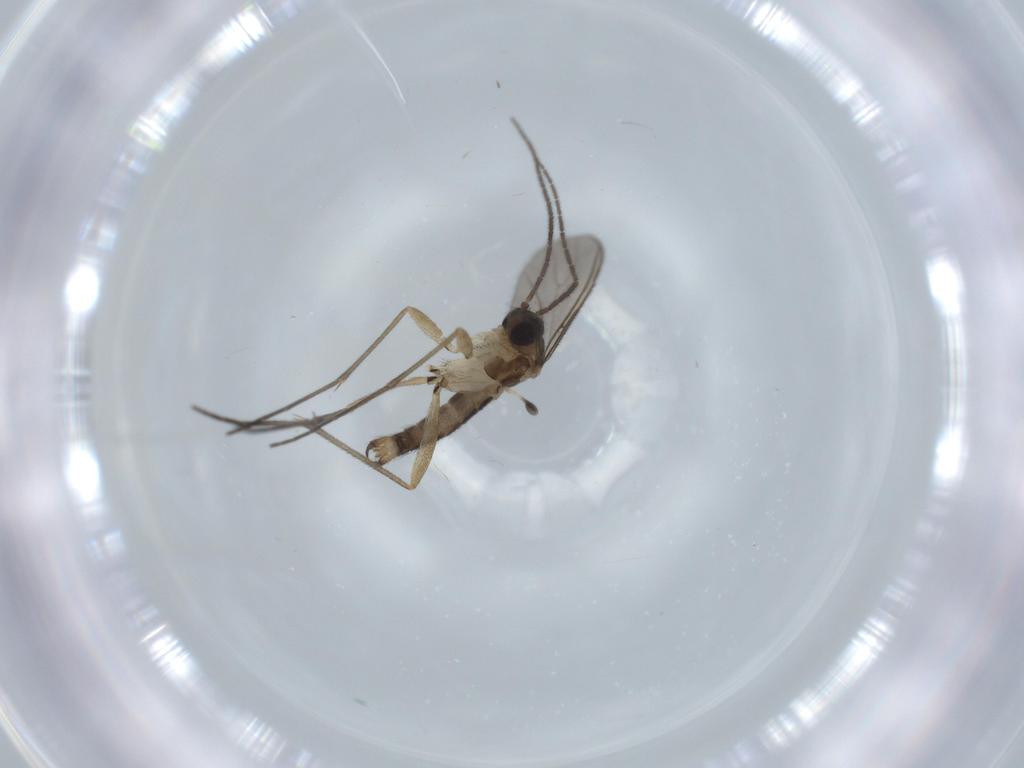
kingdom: Animalia
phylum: Arthropoda
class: Insecta
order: Diptera
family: Sciaridae
